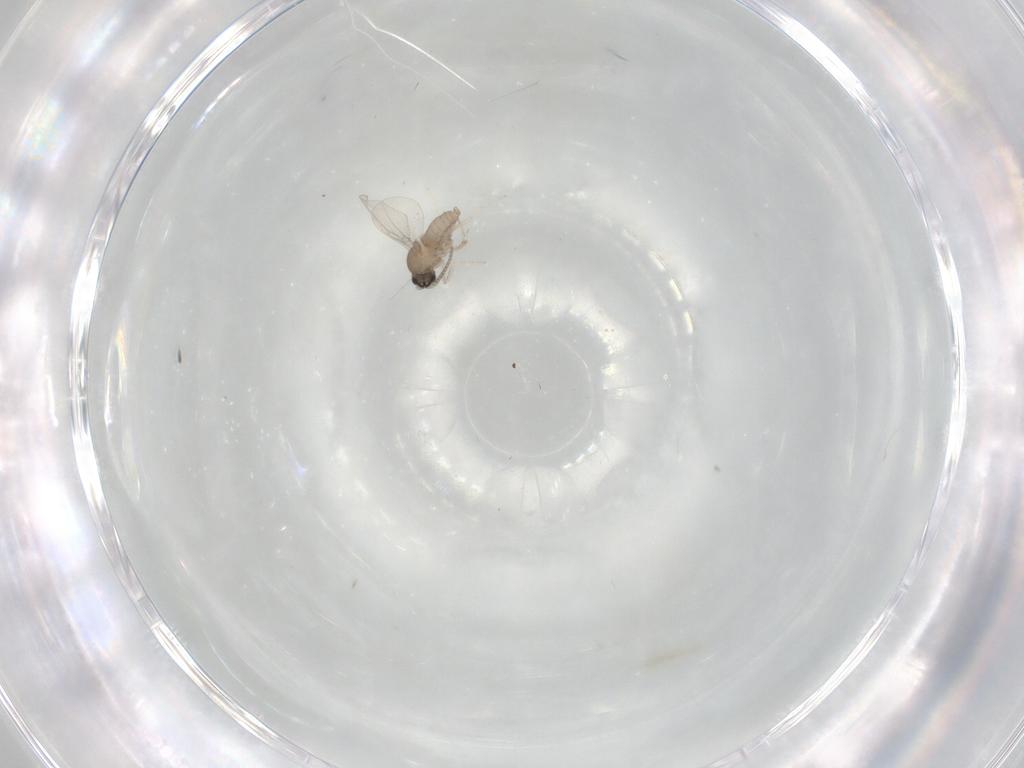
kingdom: Animalia
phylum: Arthropoda
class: Insecta
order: Diptera
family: Cecidomyiidae
